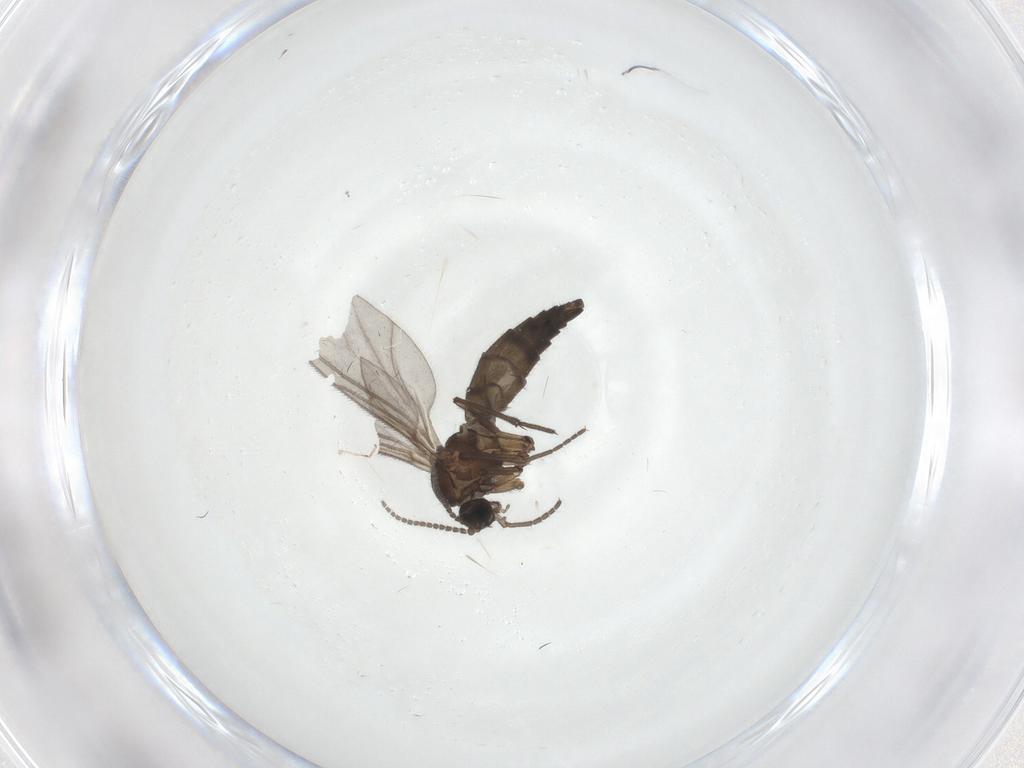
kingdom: Animalia
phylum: Arthropoda
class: Insecta
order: Diptera
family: Sciaridae
